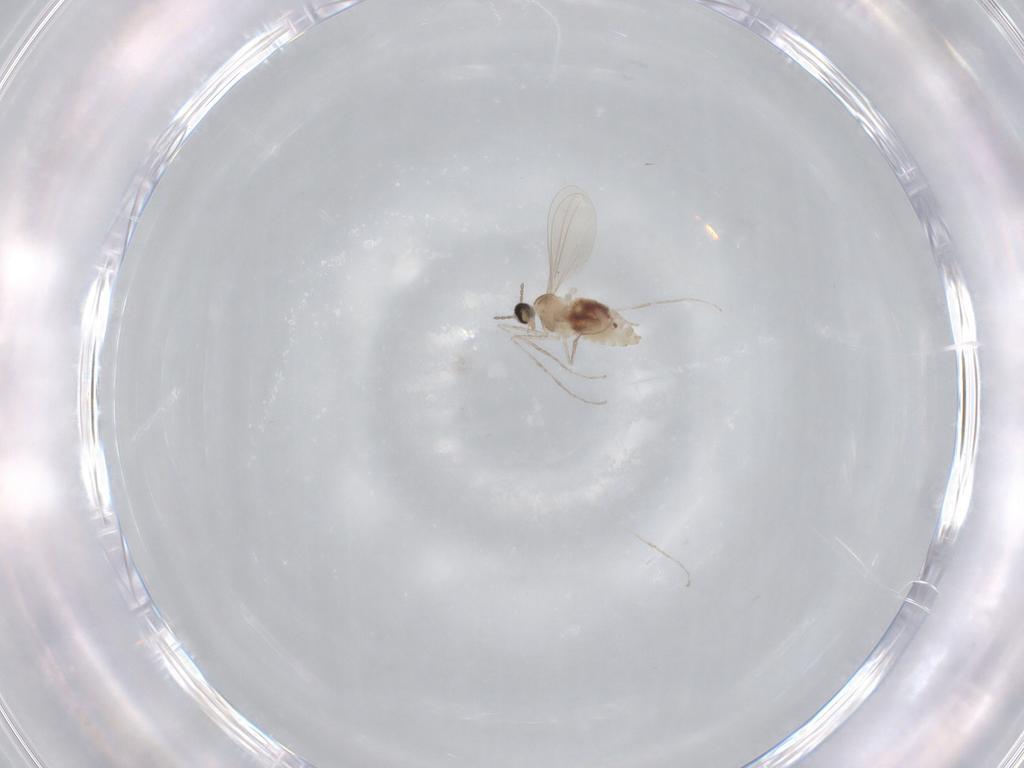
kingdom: Animalia
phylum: Arthropoda
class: Insecta
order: Diptera
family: Cecidomyiidae
